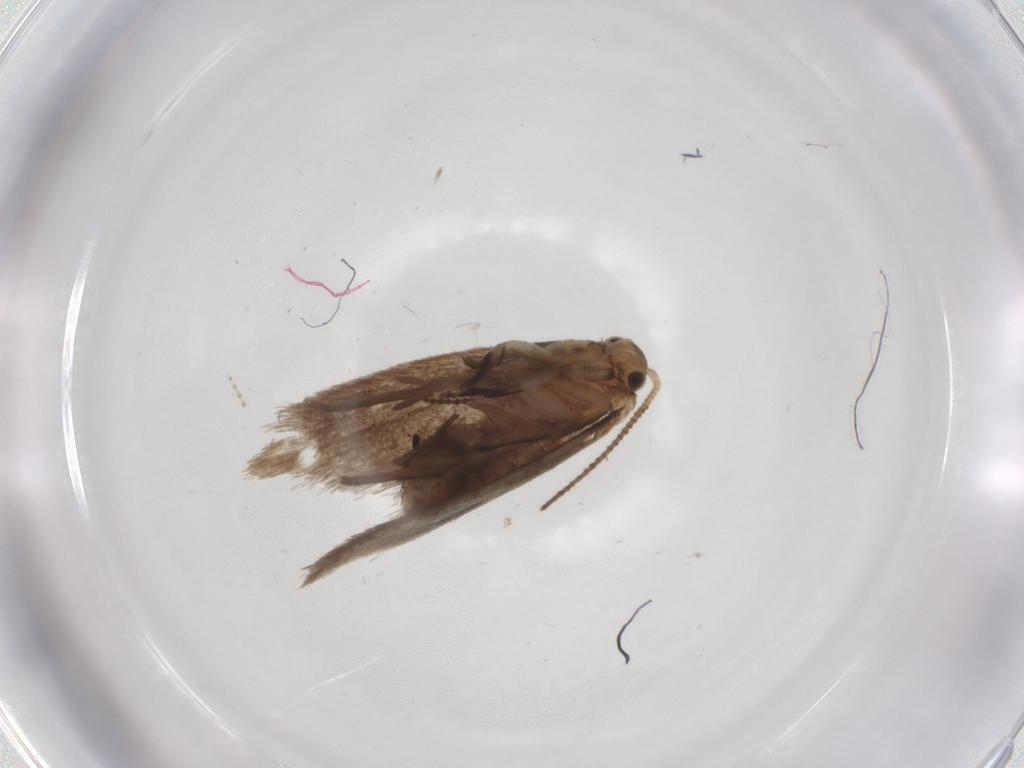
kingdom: Animalia
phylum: Arthropoda
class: Insecta
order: Lepidoptera
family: Dryadaulidae
